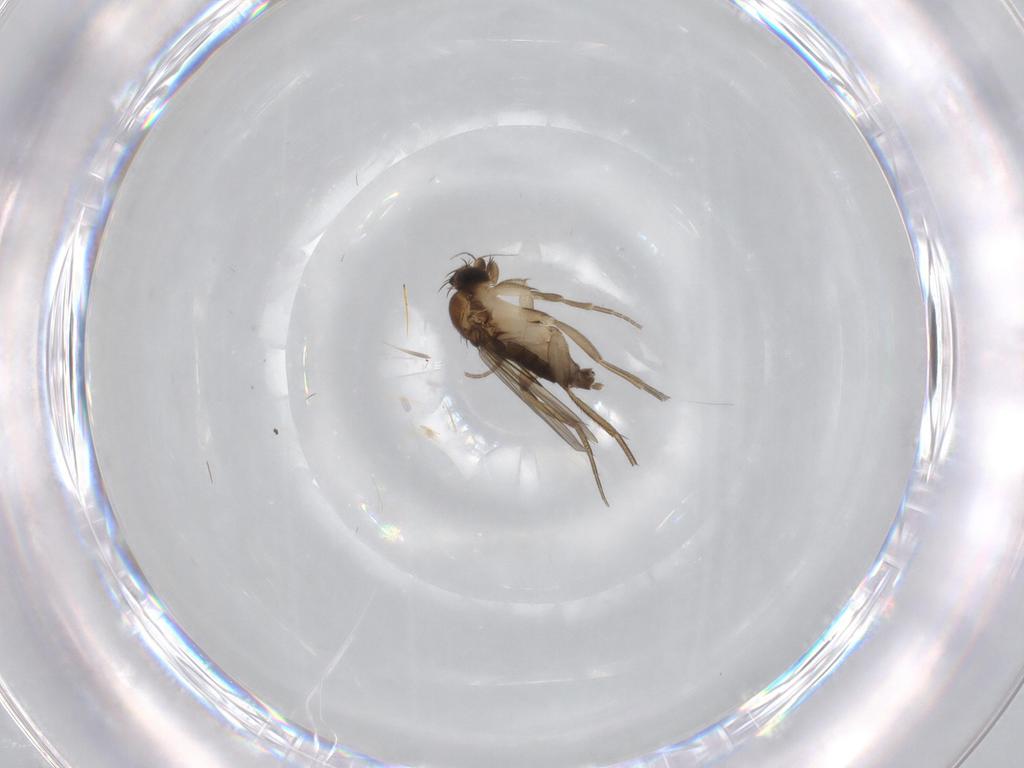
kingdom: Animalia
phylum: Arthropoda
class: Insecta
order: Diptera
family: Phoridae
